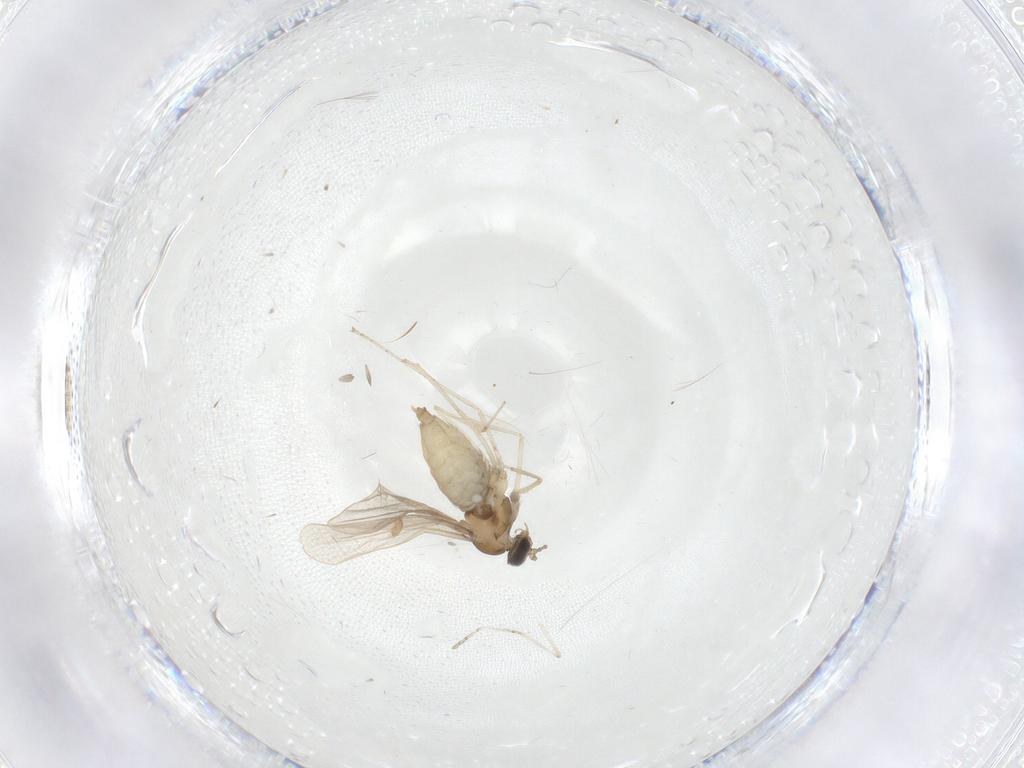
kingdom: Animalia
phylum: Arthropoda
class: Insecta
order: Diptera
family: Cecidomyiidae
